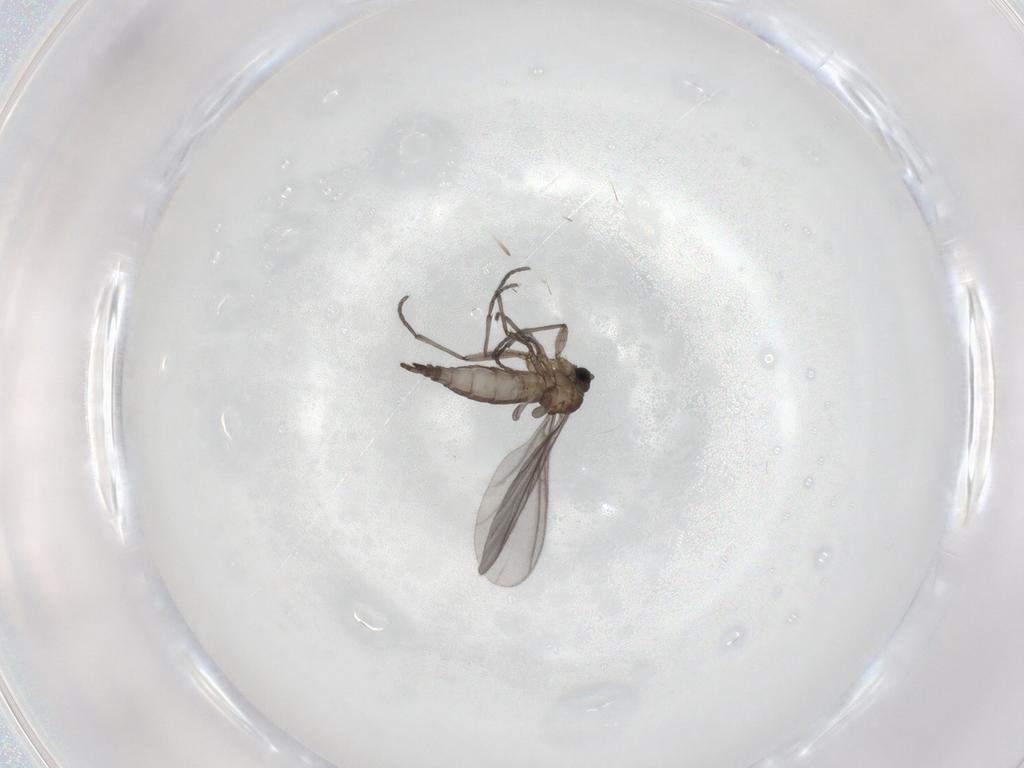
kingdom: Animalia
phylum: Arthropoda
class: Insecta
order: Diptera
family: Sciaridae
